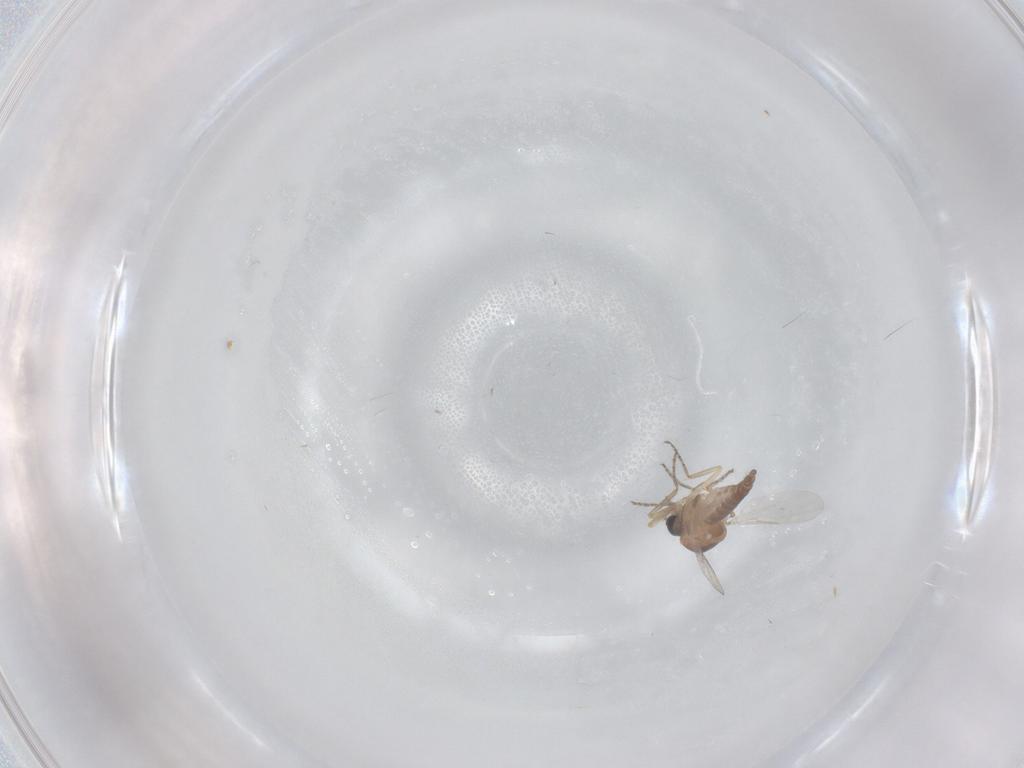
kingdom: Animalia
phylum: Arthropoda
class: Insecta
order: Diptera
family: Ceratopogonidae
